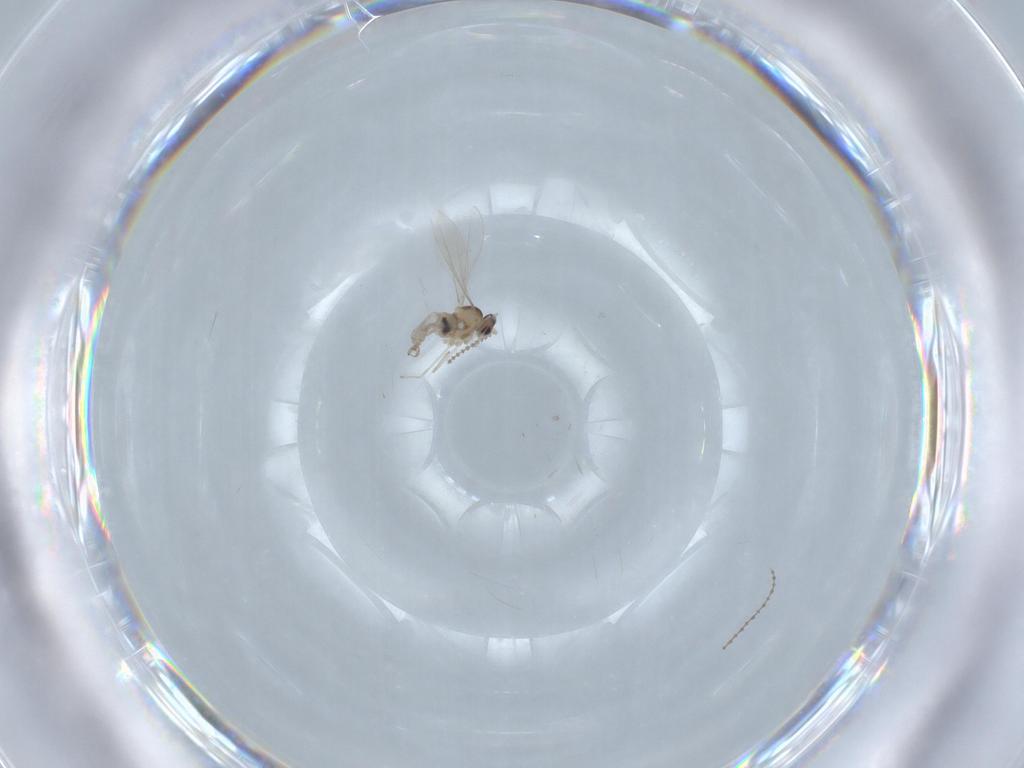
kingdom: Animalia
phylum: Arthropoda
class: Insecta
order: Diptera
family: Cecidomyiidae
